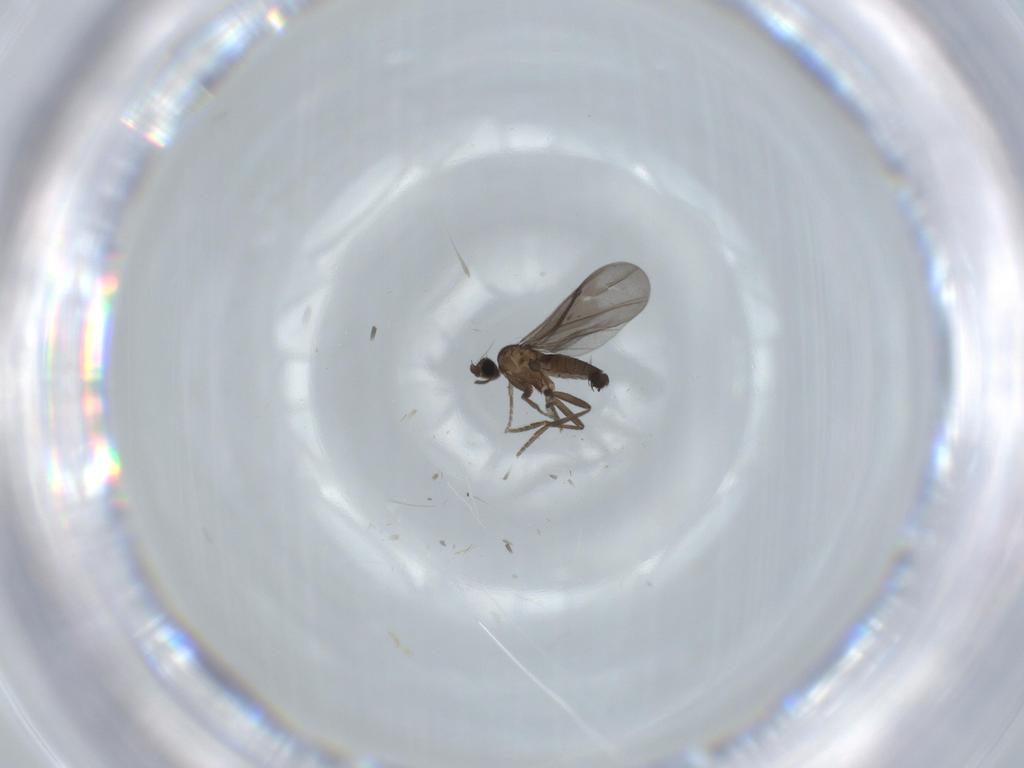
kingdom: Animalia
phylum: Arthropoda
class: Insecta
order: Diptera
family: Phoridae
